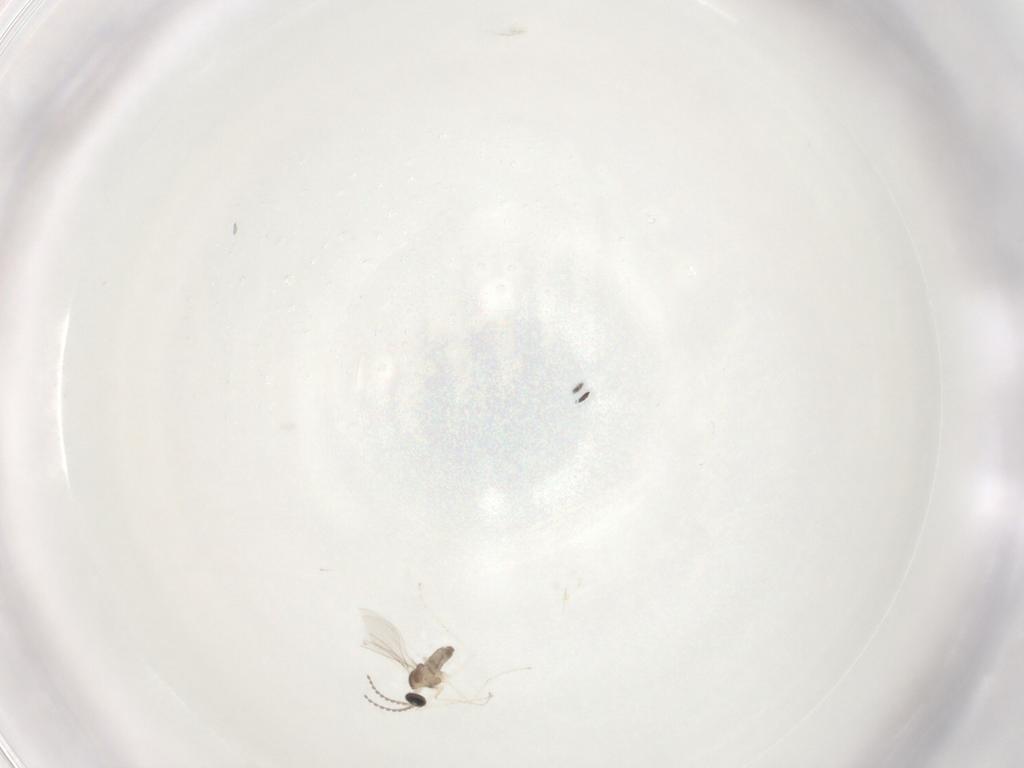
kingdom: Animalia
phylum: Arthropoda
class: Insecta
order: Diptera
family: Cecidomyiidae
